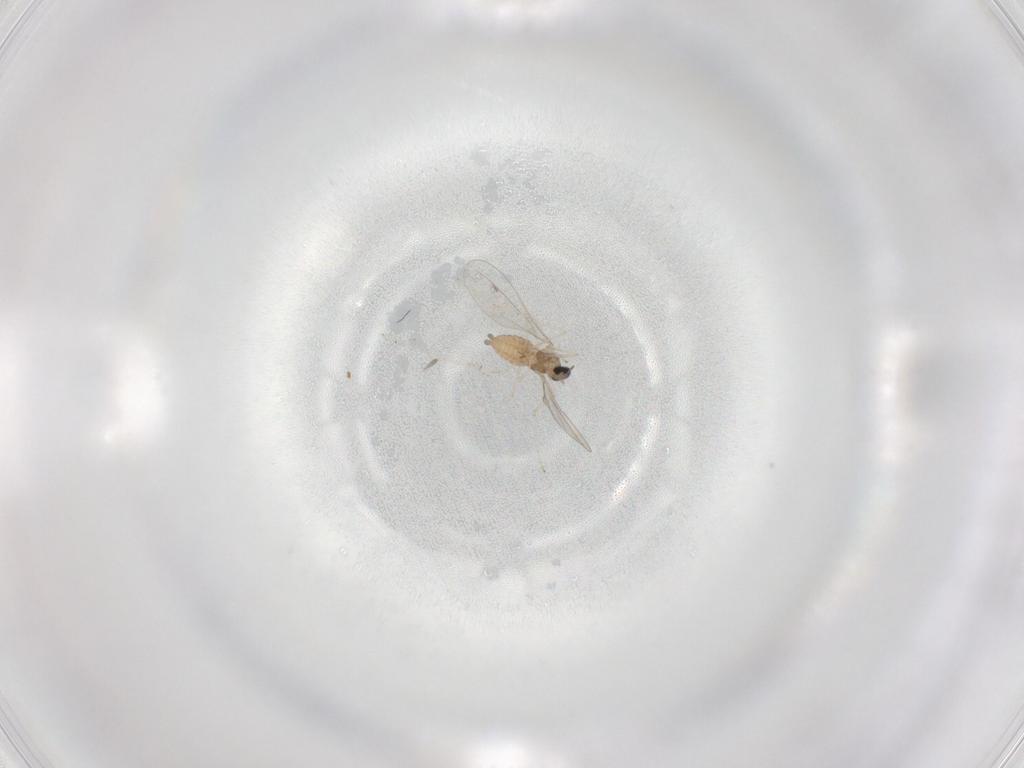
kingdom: Animalia
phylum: Arthropoda
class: Insecta
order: Diptera
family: Cecidomyiidae
